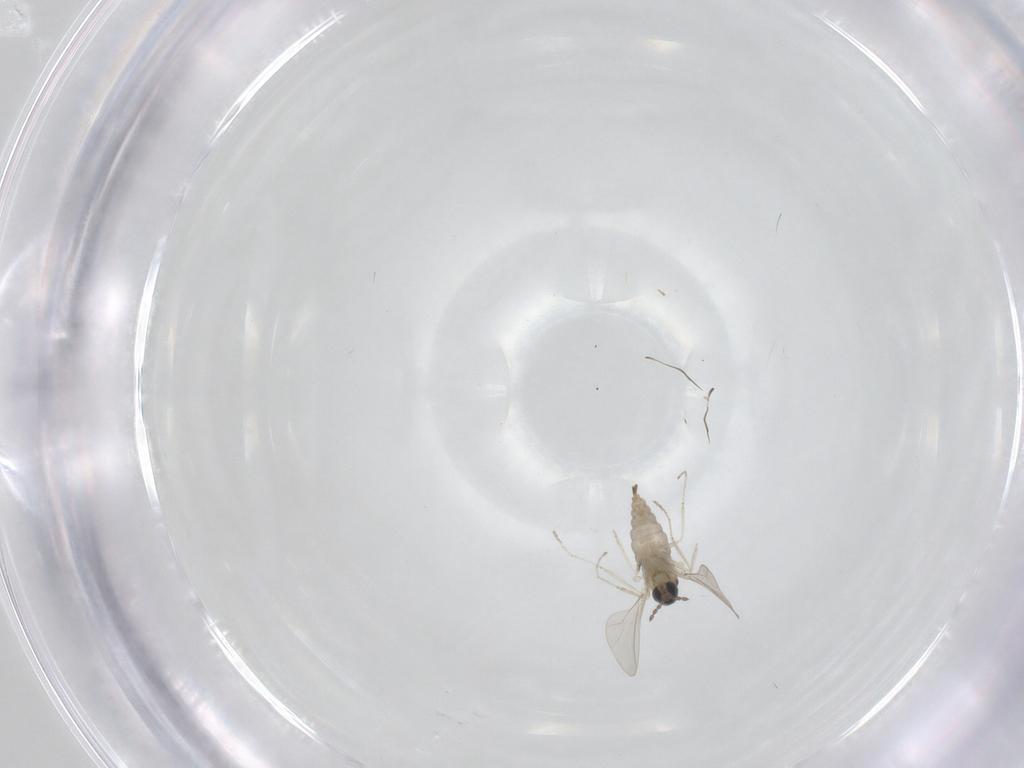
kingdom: Animalia
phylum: Arthropoda
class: Insecta
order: Diptera
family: Cecidomyiidae
